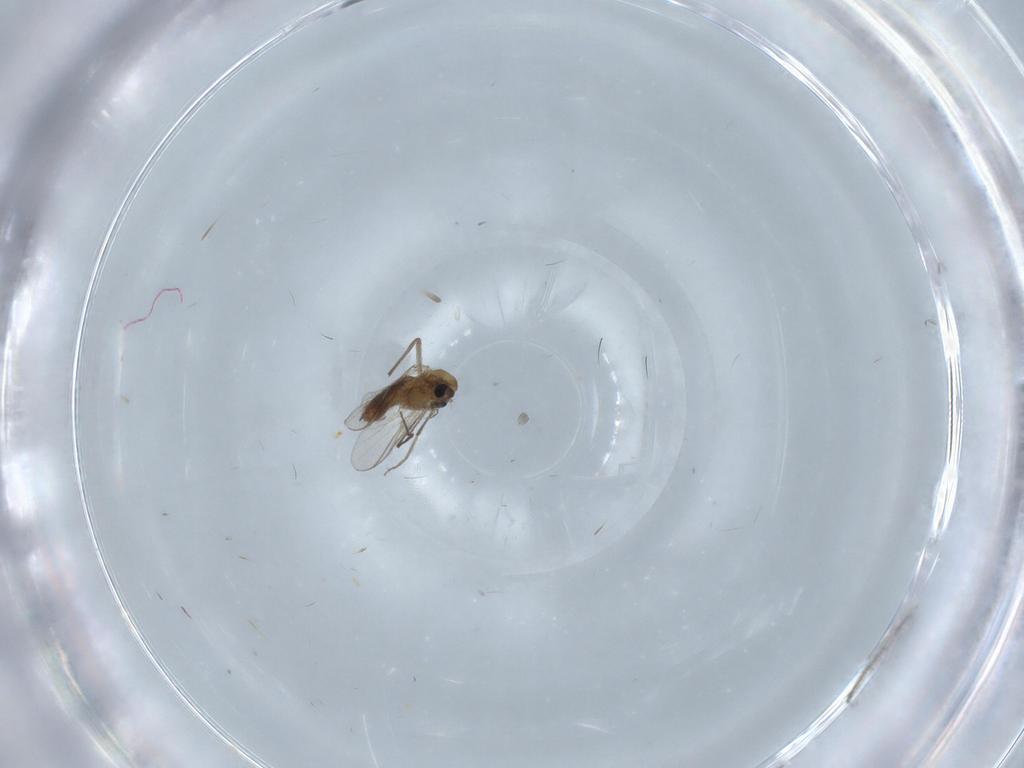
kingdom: Animalia
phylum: Arthropoda
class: Insecta
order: Diptera
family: Chironomidae
